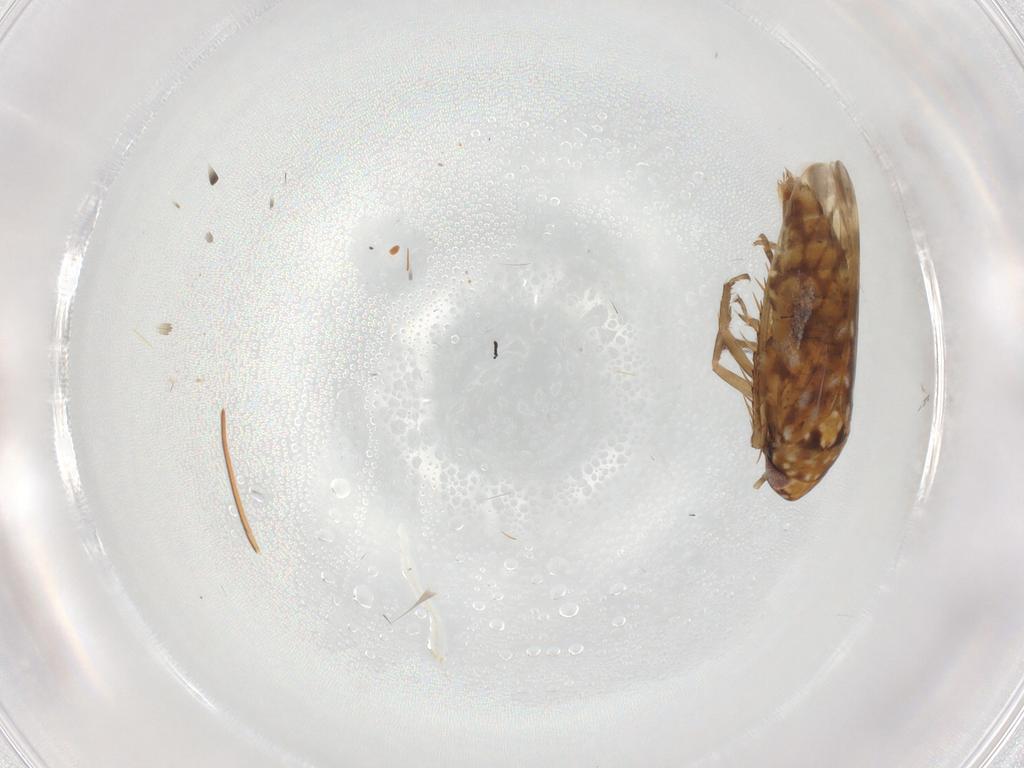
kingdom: Animalia
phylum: Arthropoda
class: Insecta
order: Hemiptera
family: Cicadellidae
